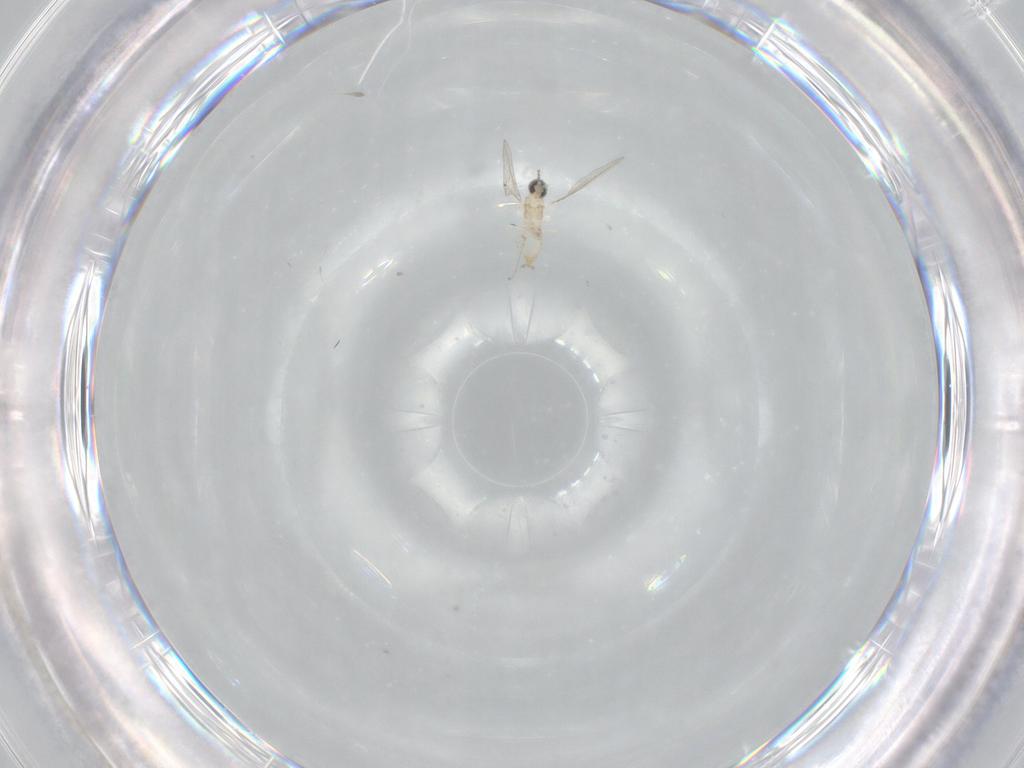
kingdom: Animalia
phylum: Arthropoda
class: Insecta
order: Diptera
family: Cecidomyiidae
